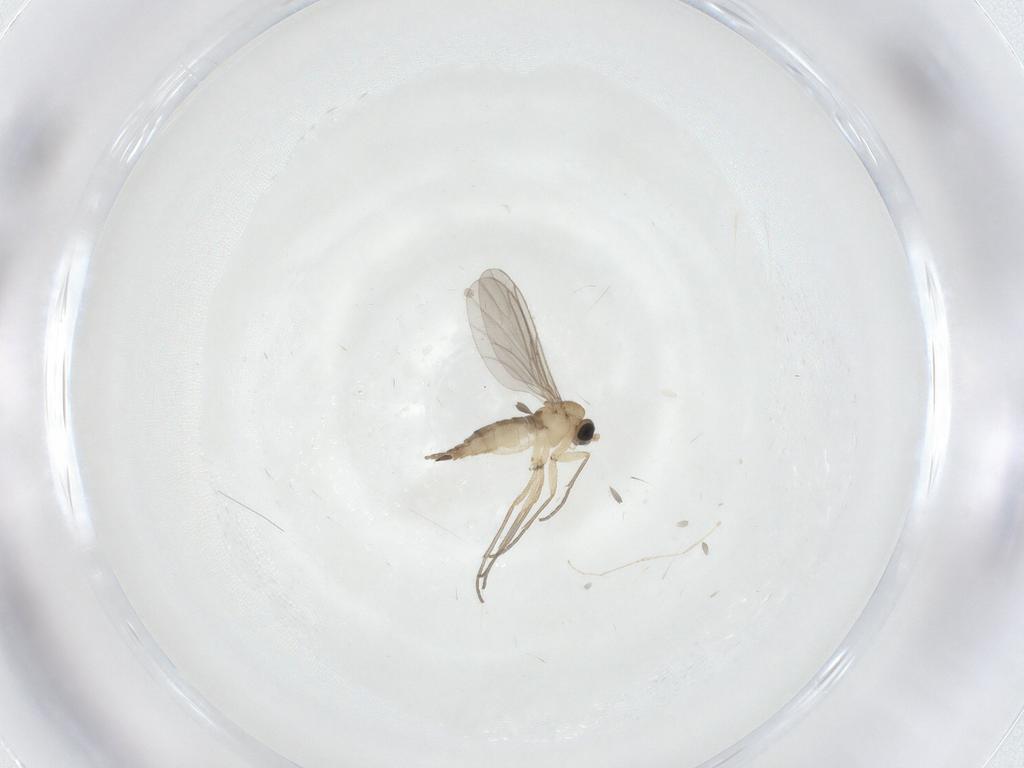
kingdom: Animalia
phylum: Arthropoda
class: Insecta
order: Diptera
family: Sciaridae
